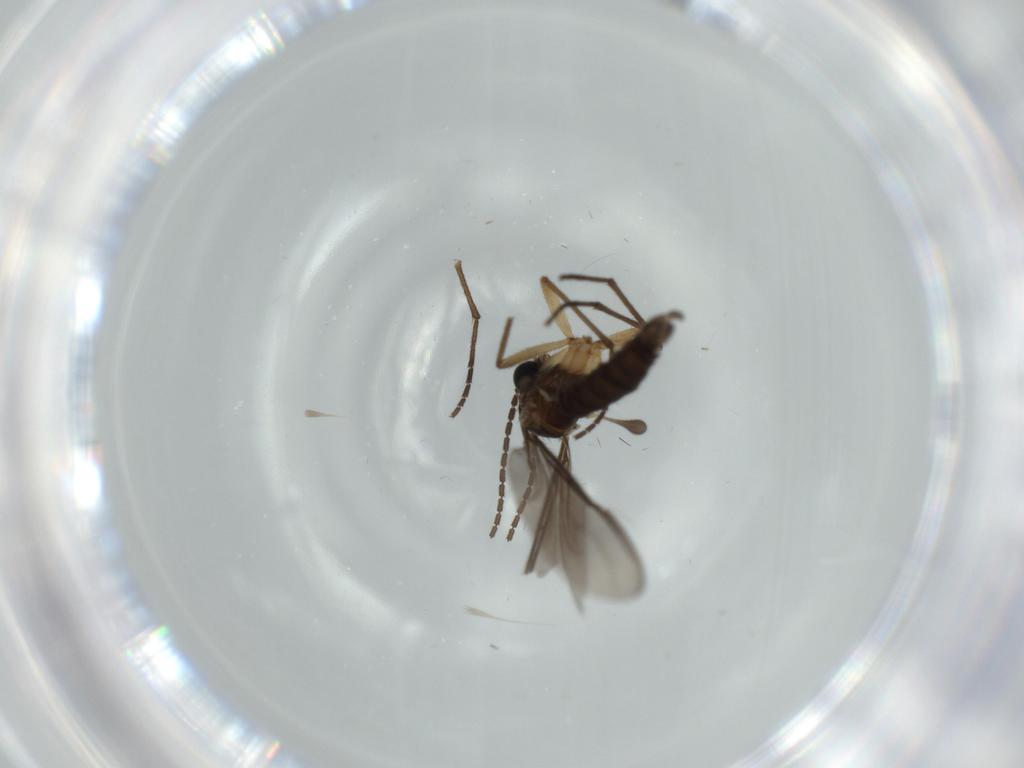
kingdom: Animalia
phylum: Arthropoda
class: Insecta
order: Diptera
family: Sciaridae
